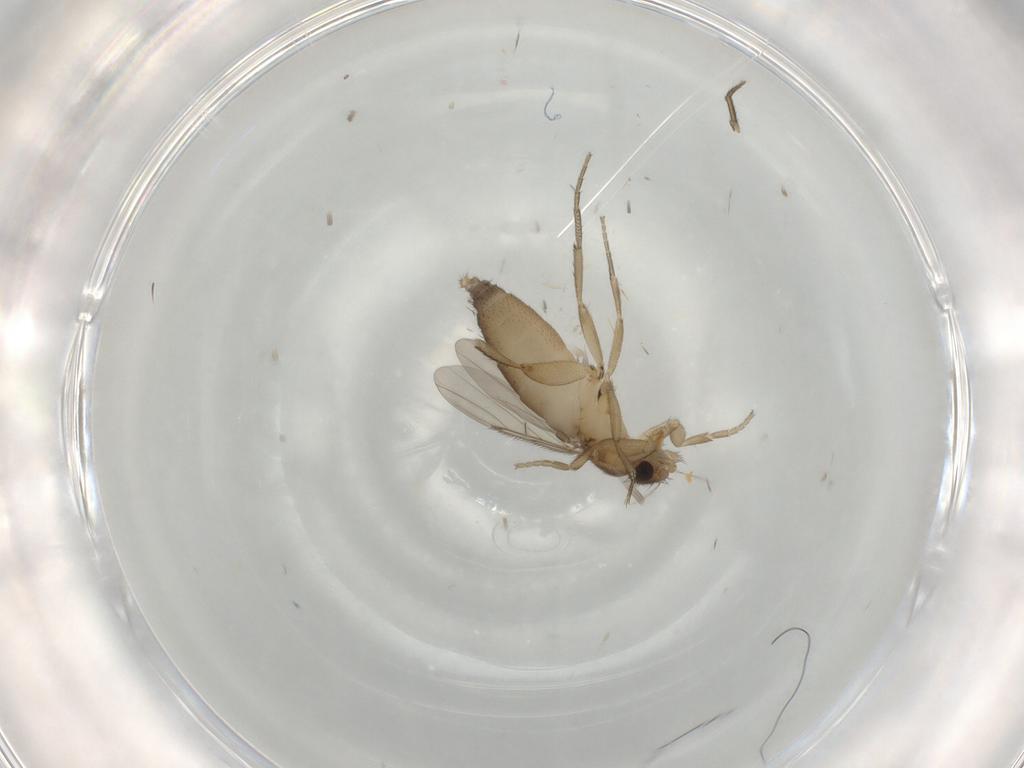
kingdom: Animalia
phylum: Arthropoda
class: Insecta
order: Diptera
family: Phoridae
